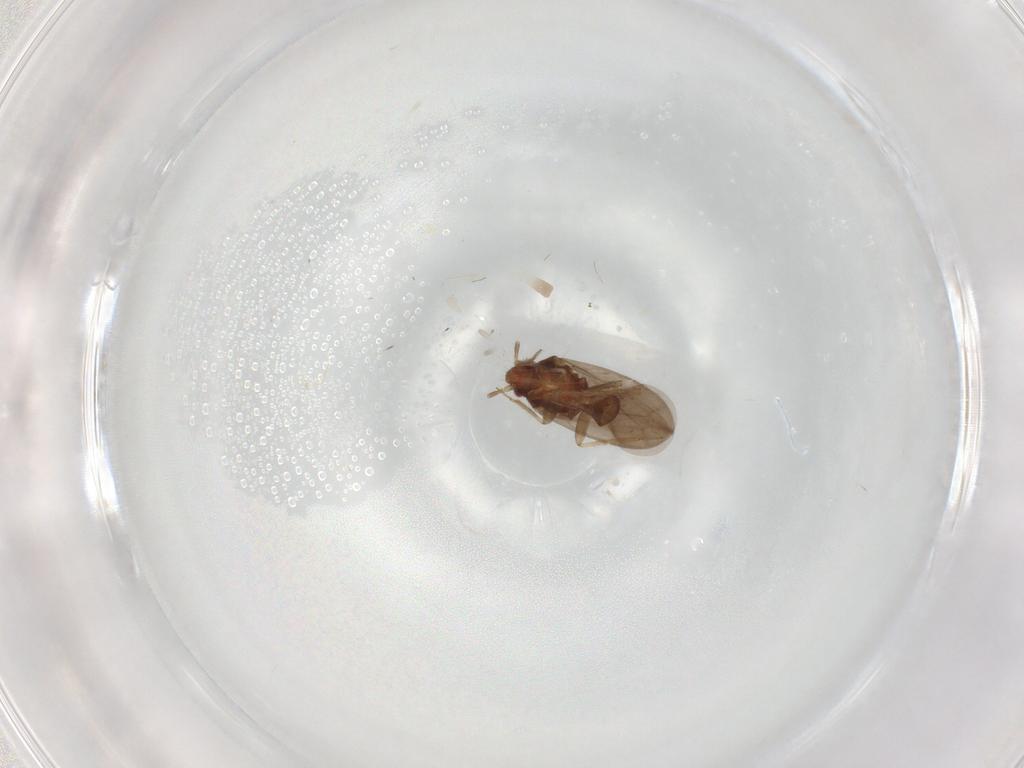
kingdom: Animalia
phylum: Arthropoda
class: Insecta
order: Hemiptera
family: Ceratocombidae
